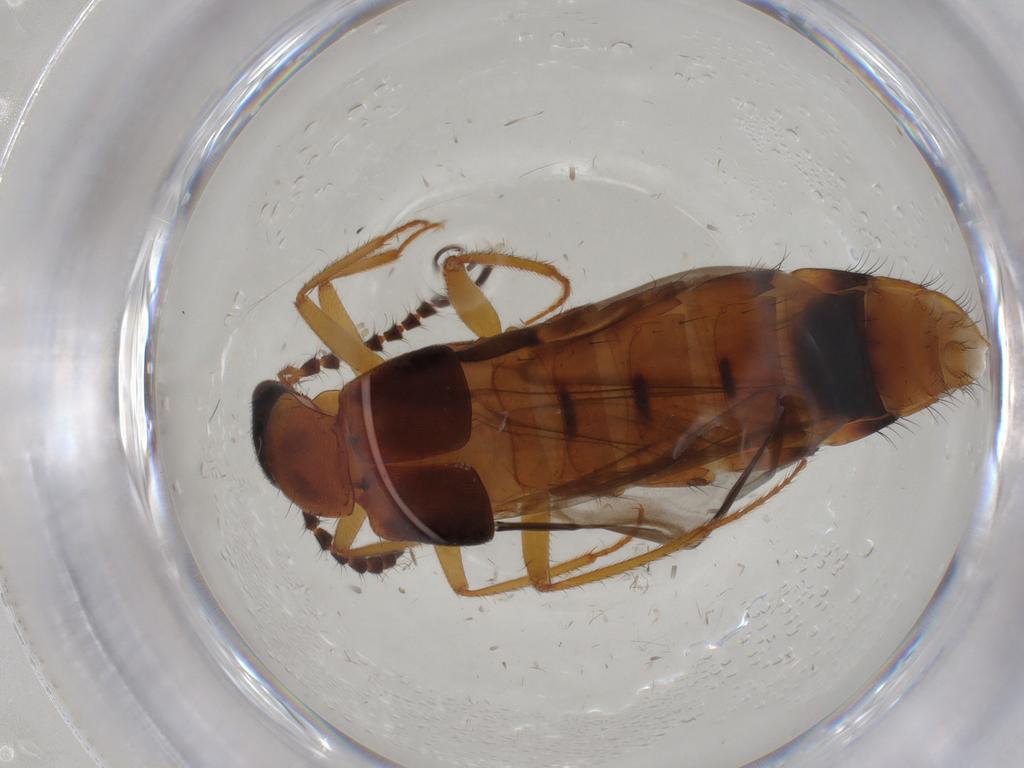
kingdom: Animalia
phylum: Arthropoda
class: Insecta
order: Coleoptera
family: Staphylinidae
